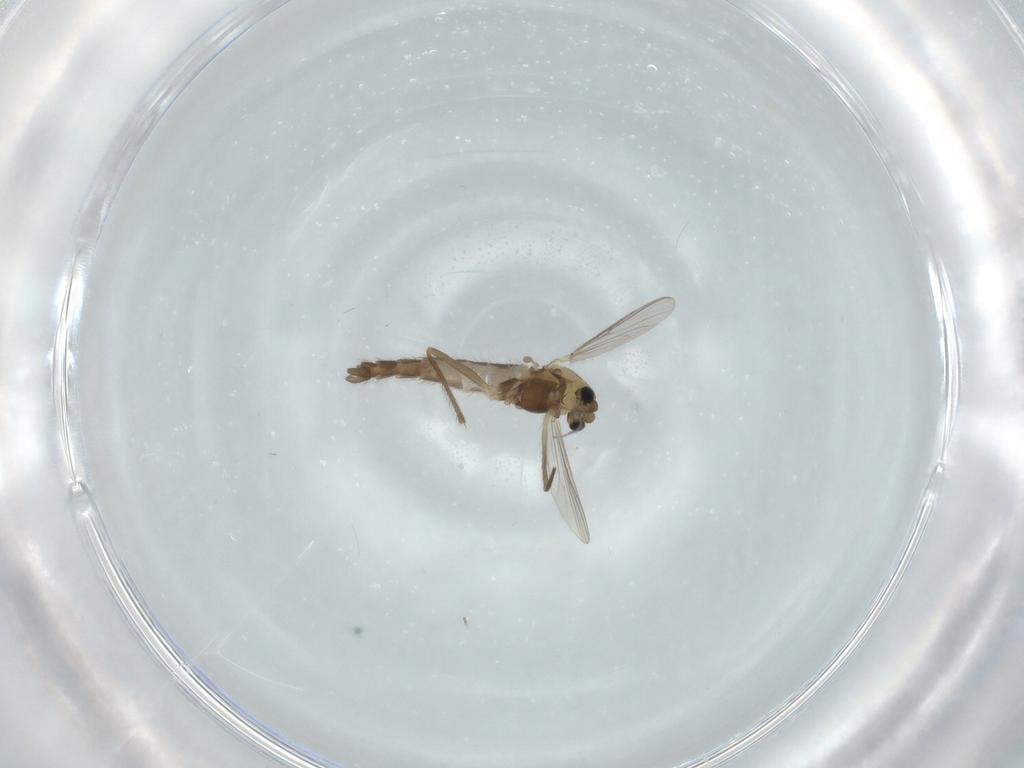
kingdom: Animalia
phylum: Arthropoda
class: Insecta
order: Diptera
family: Chironomidae
